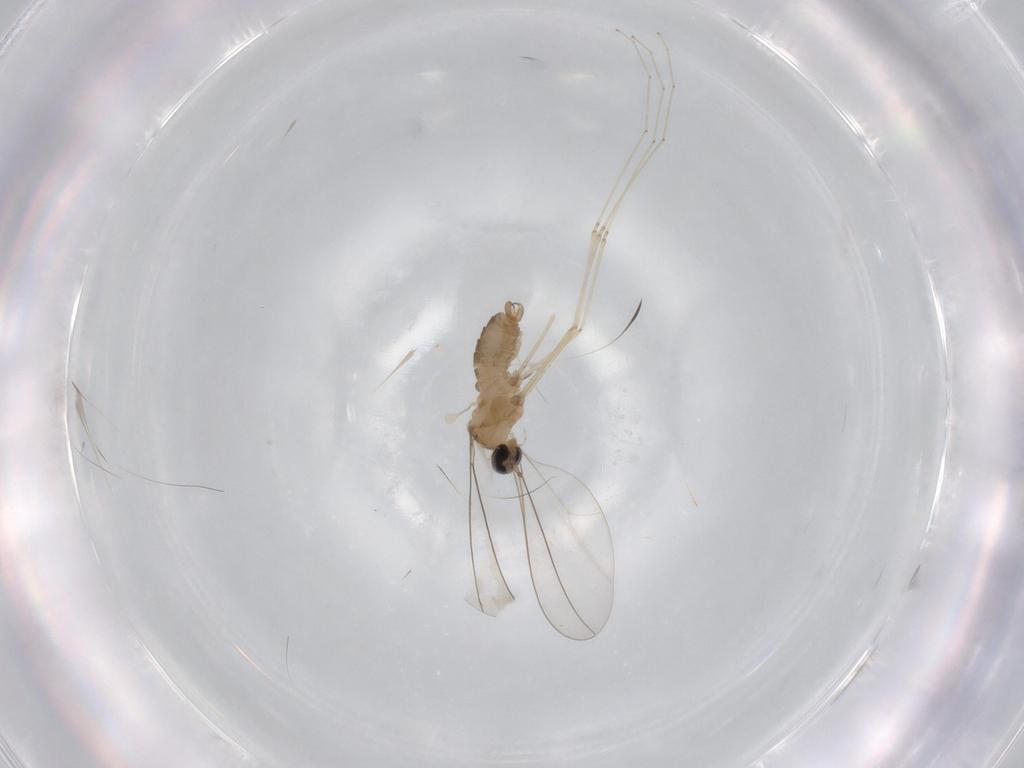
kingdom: Animalia
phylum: Arthropoda
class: Insecta
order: Diptera
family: Cecidomyiidae
